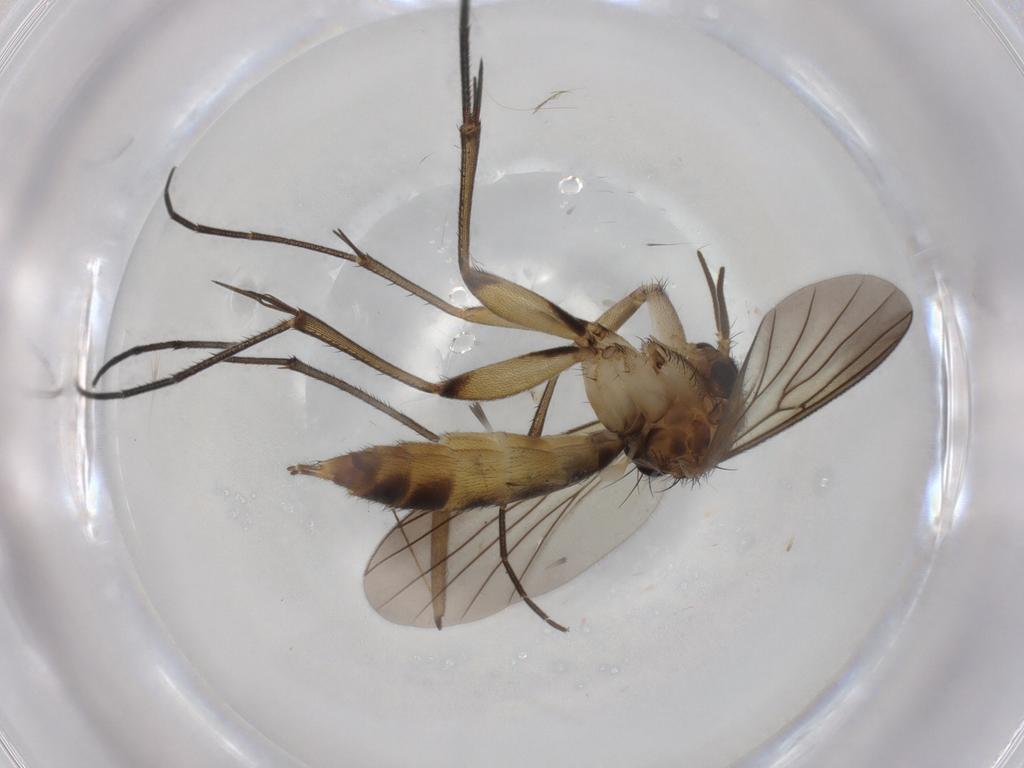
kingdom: Animalia
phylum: Arthropoda
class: Insecta
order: Diptera
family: Mycetophilidae
